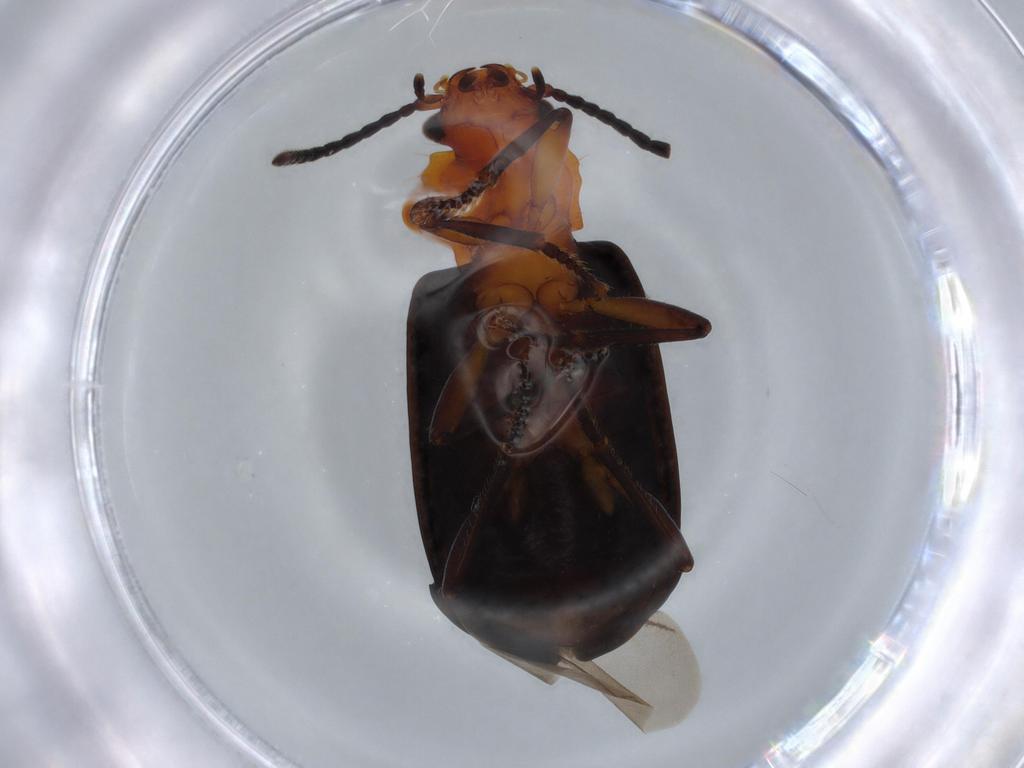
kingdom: Animalia
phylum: Arthropoda
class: Insecta
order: Coleoptera
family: Carabidae
